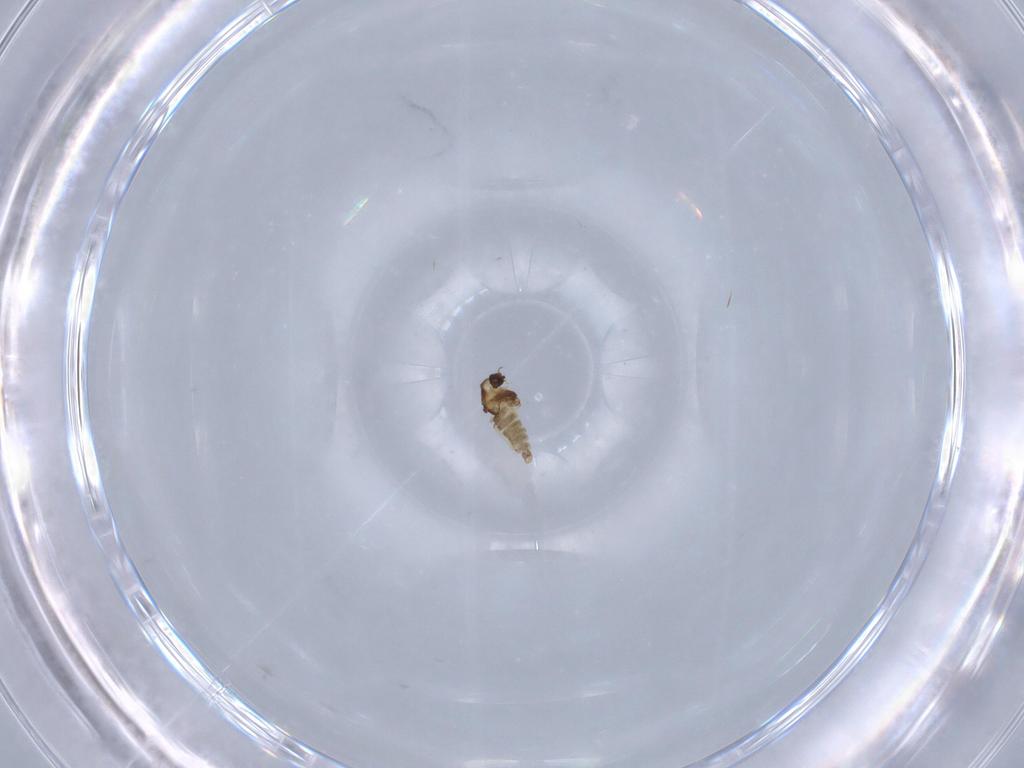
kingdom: Animalia
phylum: Arthropoda
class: Insecta
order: Diptera
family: Chironomidae
